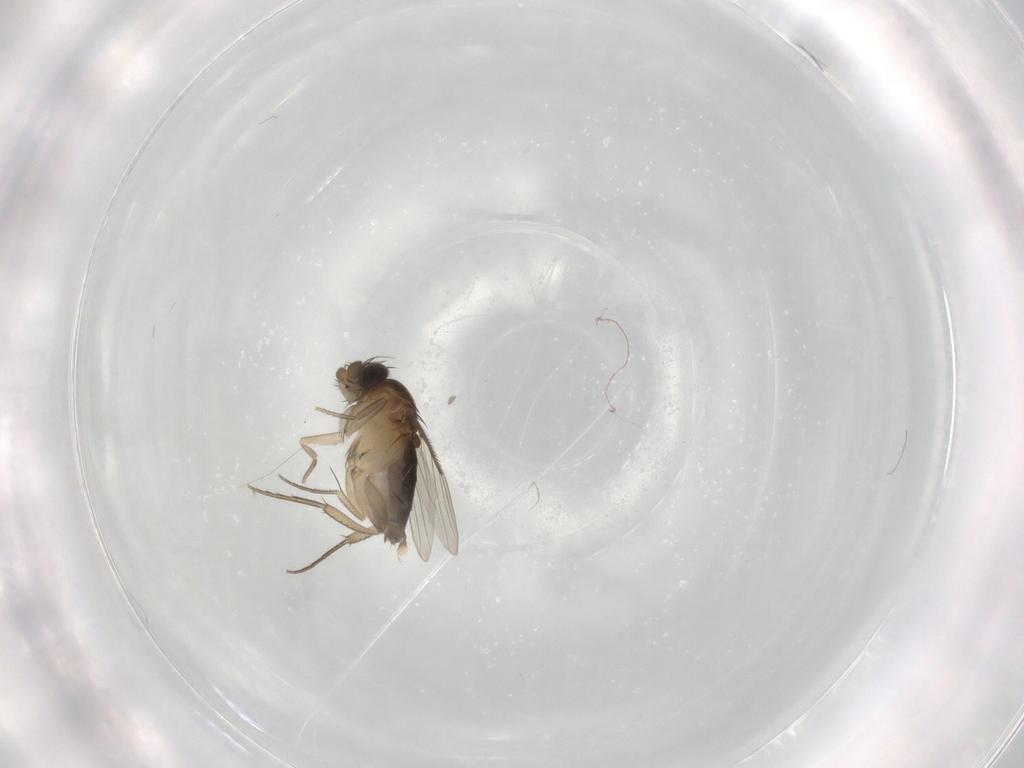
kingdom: Animalia
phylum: Arthropoda
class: Insecta
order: Diptera
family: Phoridae
